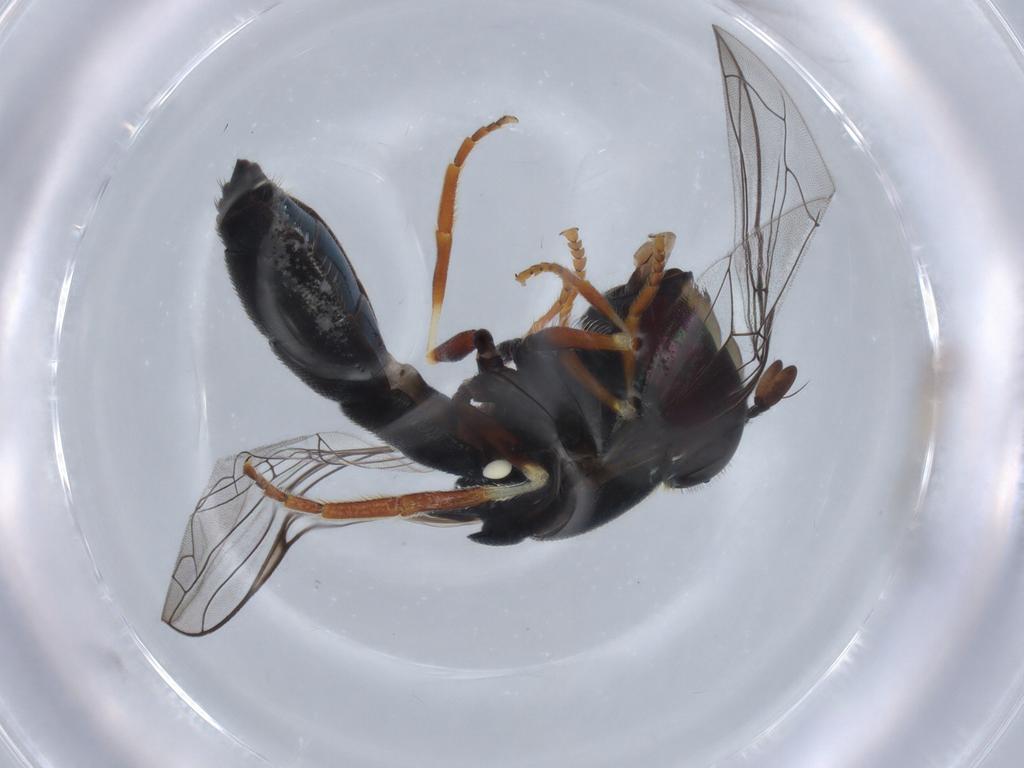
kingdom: Animalia
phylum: Arthropoda
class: Insecta
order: Diptera
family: Syrphidae
